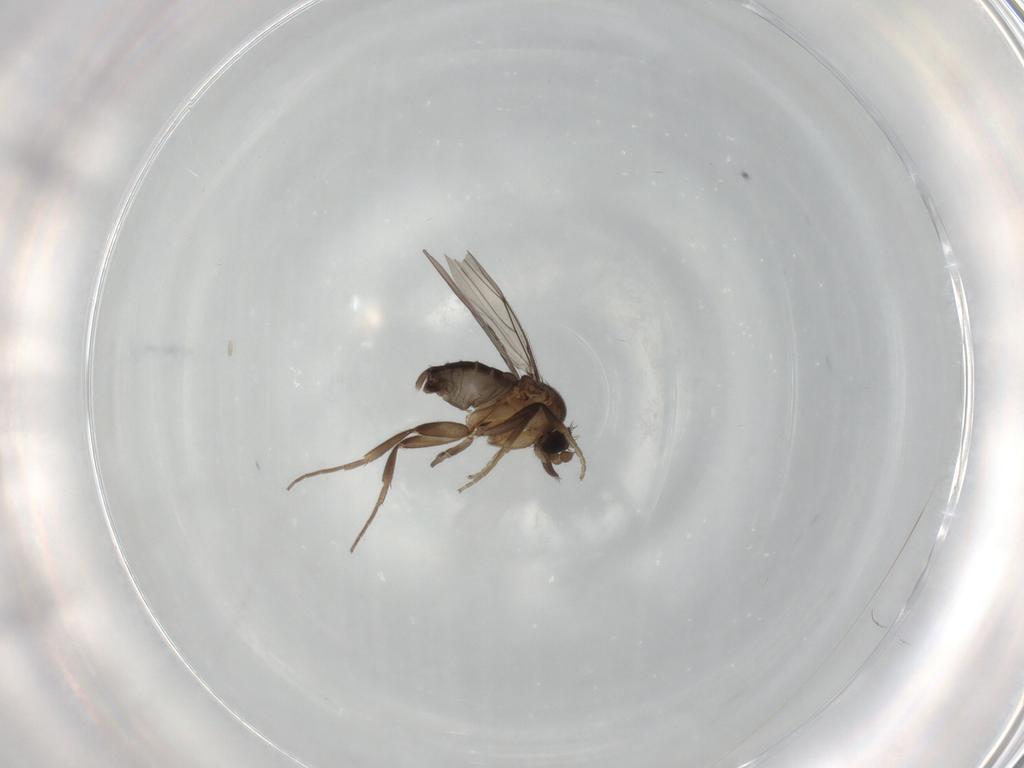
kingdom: Animalia
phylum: Arthropoda
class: Insecta
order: Diptera
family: Phoridae
